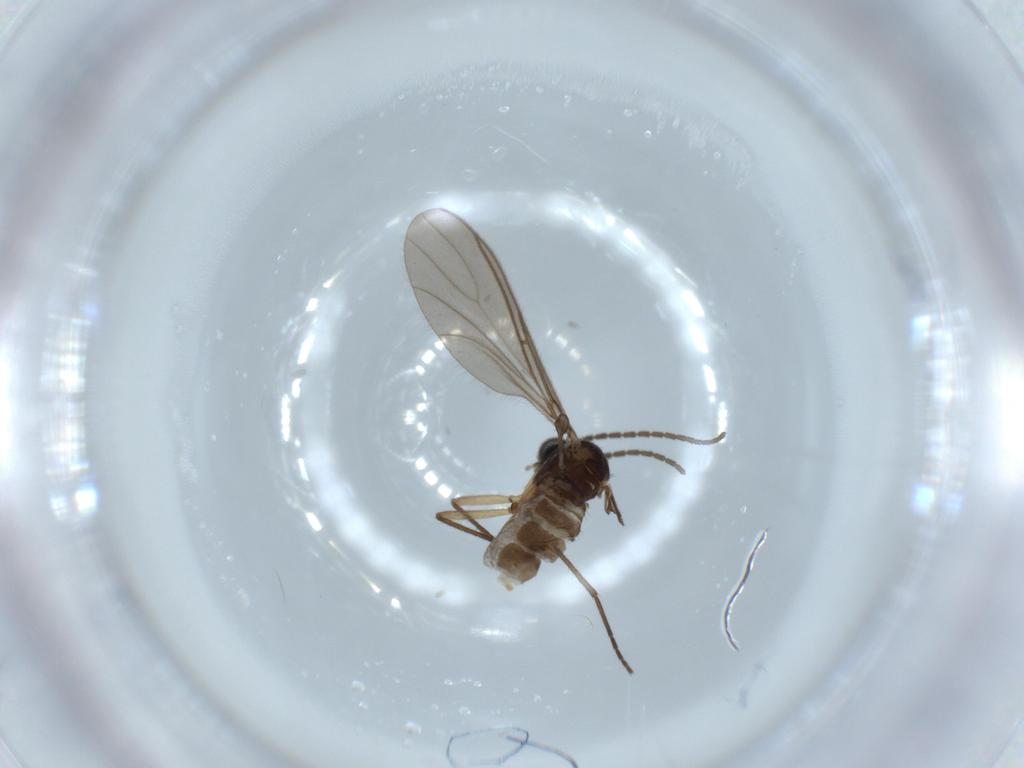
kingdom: Animalia
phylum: Arthropoda
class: Insecta
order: Diptera
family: Sciaridae
